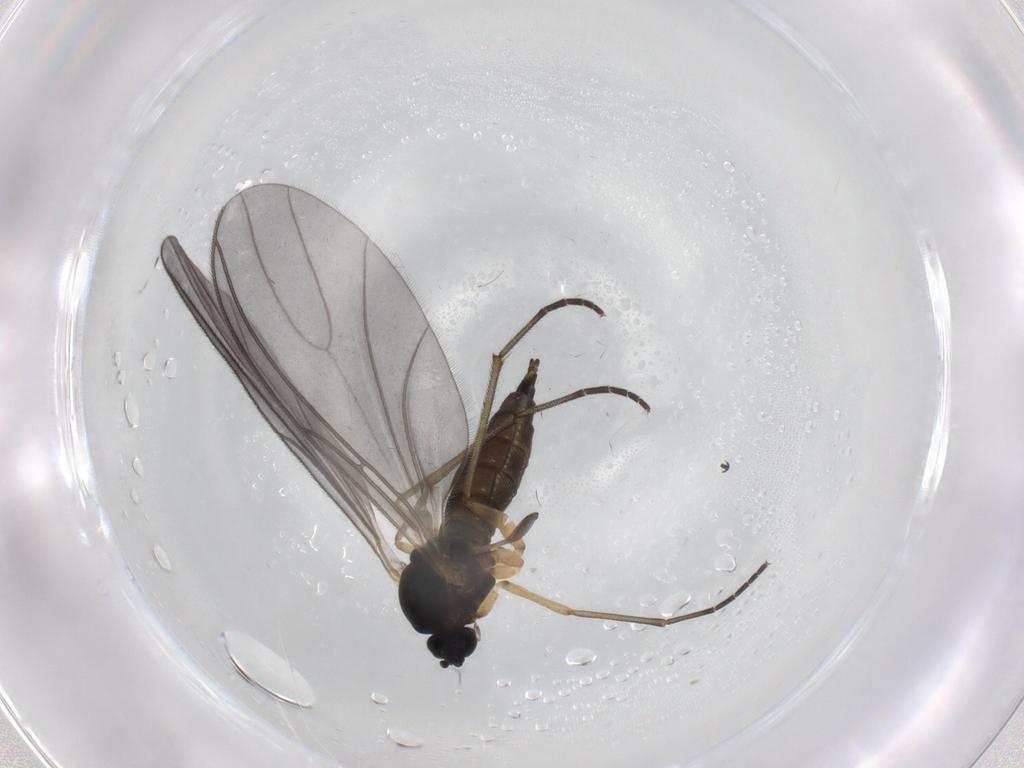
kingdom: Animalia
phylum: Arthropoda
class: Insecta
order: Diptera
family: Sciaridae
